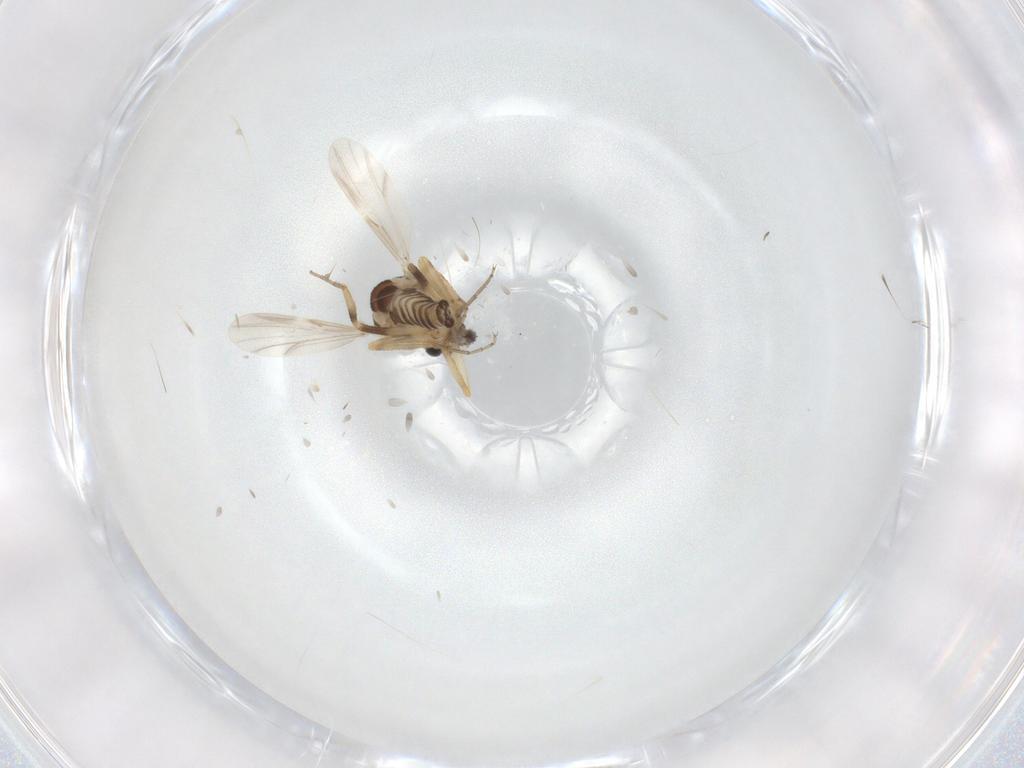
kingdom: Animalia
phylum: Arthropoda
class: Insecta
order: Diptera
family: Ceratopogonidae
